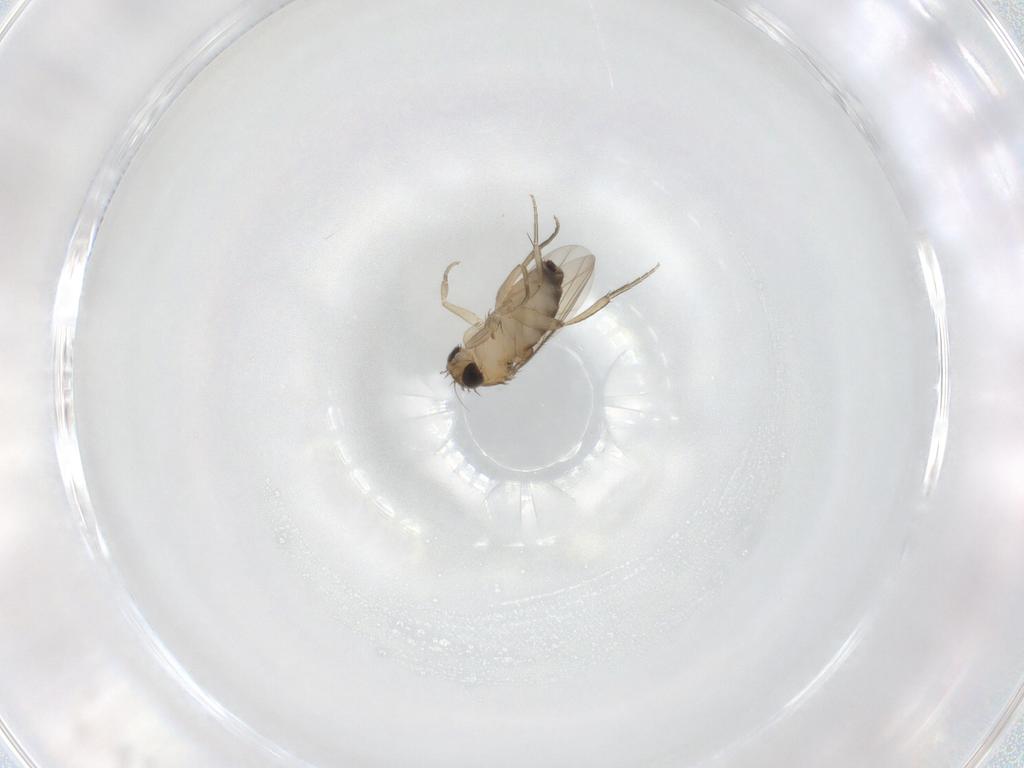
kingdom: Animalia
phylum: Arthropoda
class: Insecta
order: Diptera
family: Phoridae
